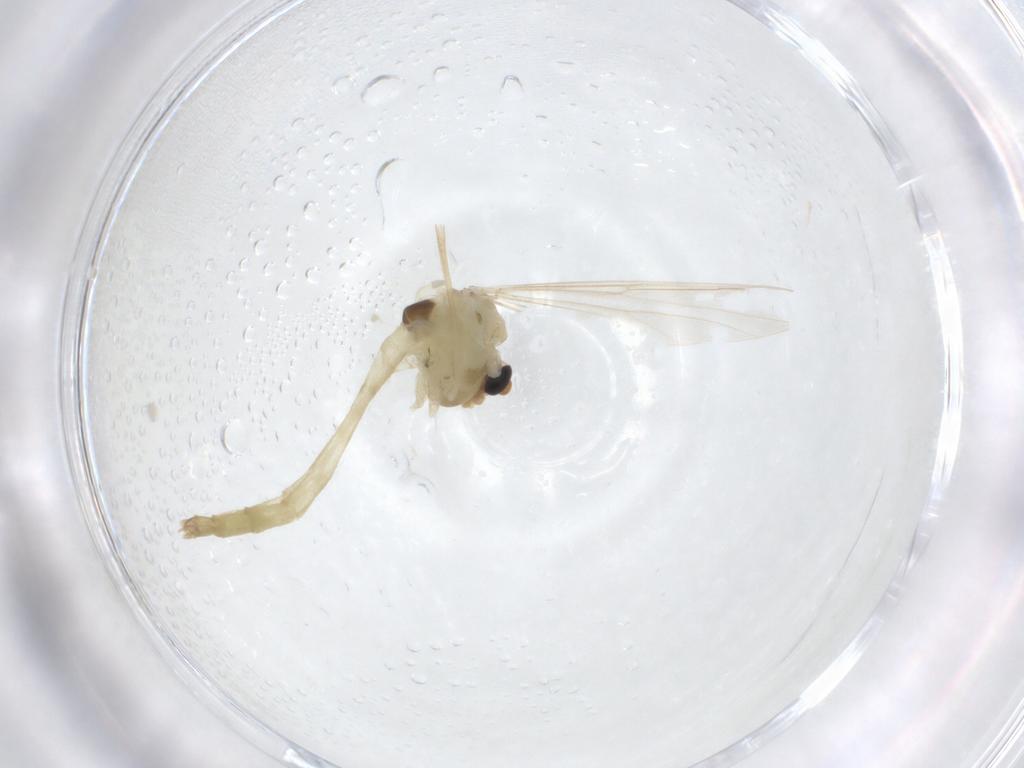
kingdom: Animalia
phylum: Arthropoda
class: Insecta
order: Diptera
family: Chironomidae
